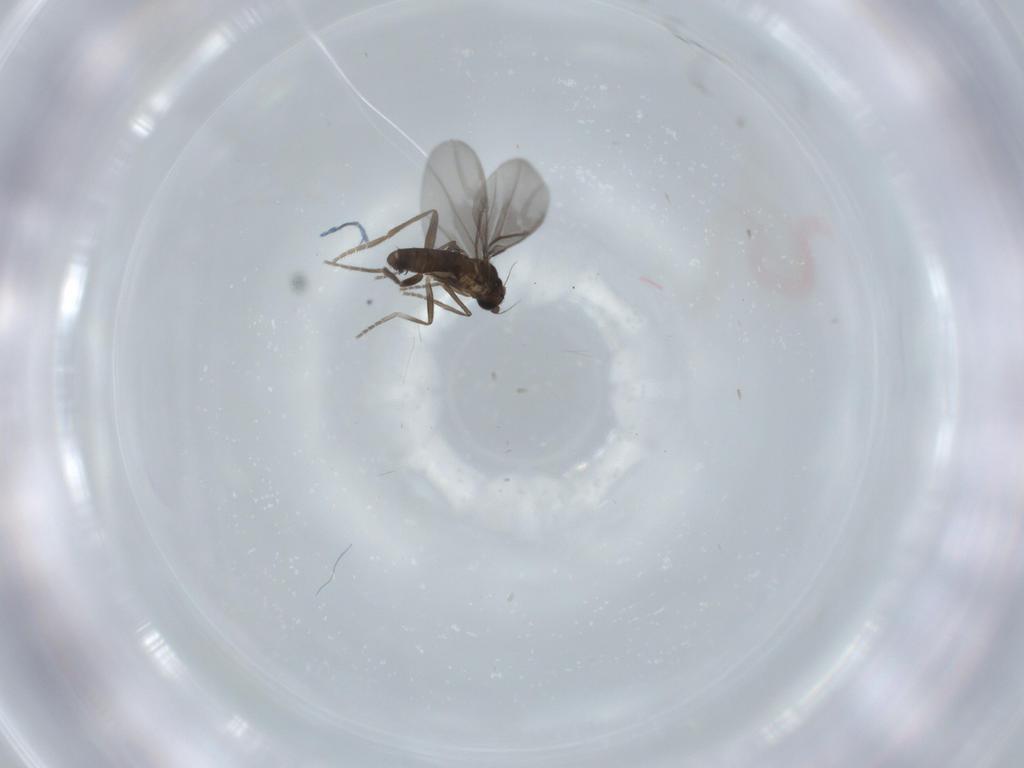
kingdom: Animalia
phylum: Arthropoda
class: Insecta
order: Diptera
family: Phoridae
